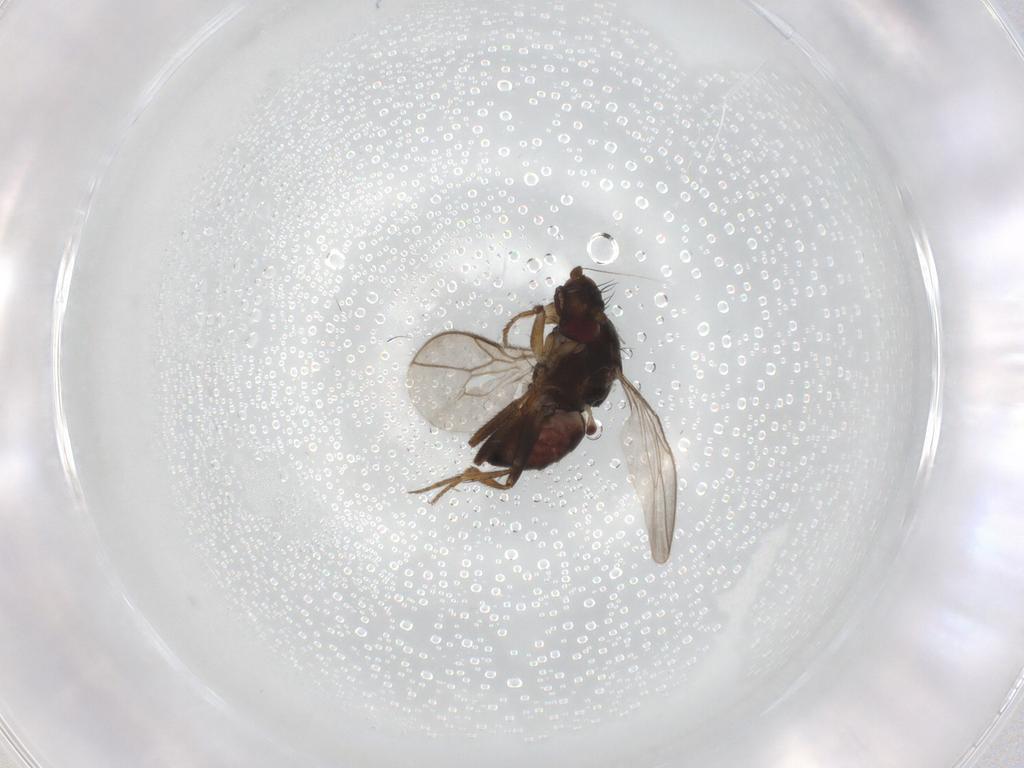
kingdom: Animalia
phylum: Arthropoda
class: Insecta
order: Diptera
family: Sphaeroceridae
